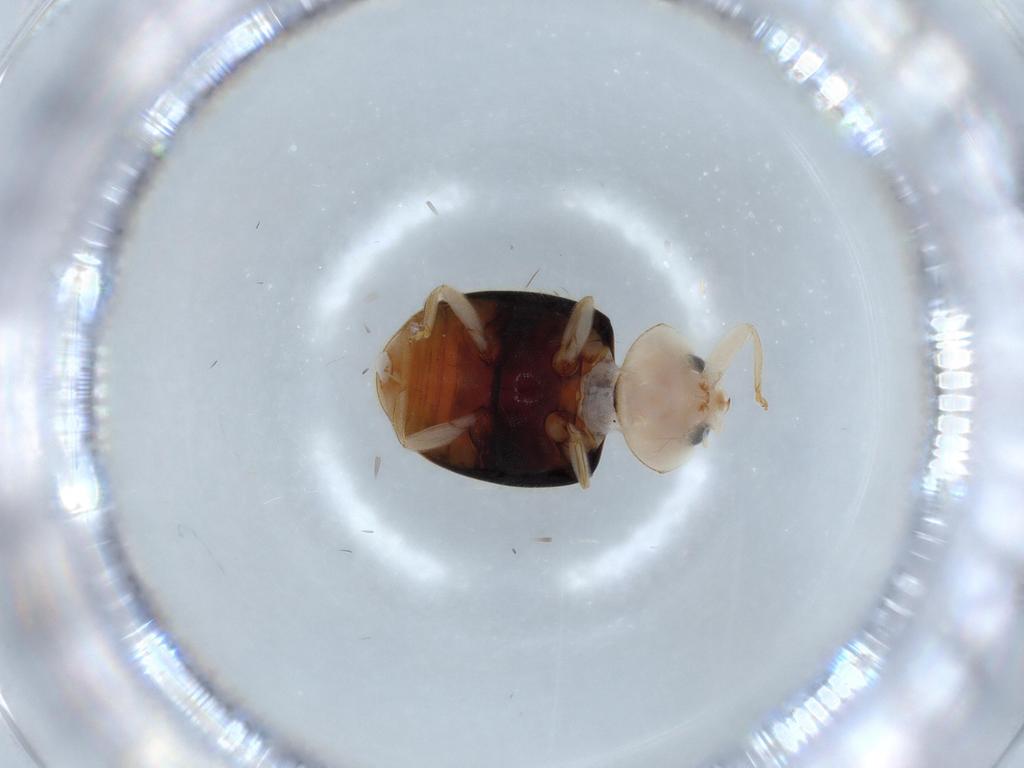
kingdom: Animalia
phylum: Arthropoda
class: Insecta
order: Coleoptera
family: Coccinellidae
